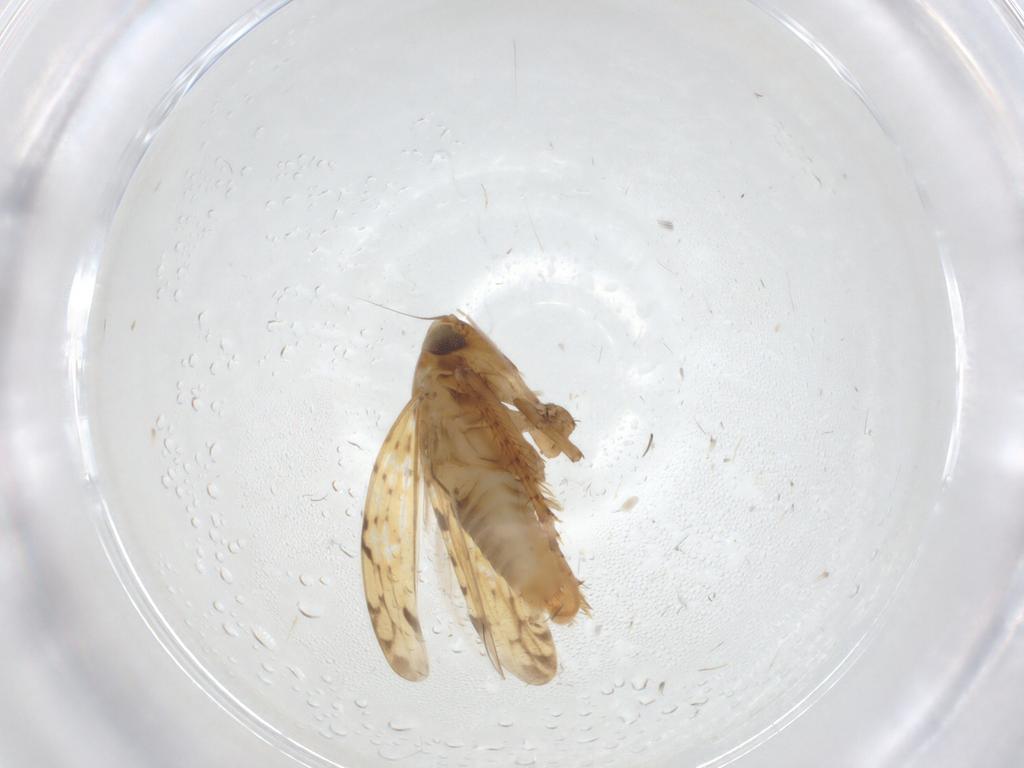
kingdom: Animalia
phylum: Arthropoda
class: Insecta
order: Hemiptera
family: Cicadellidae
